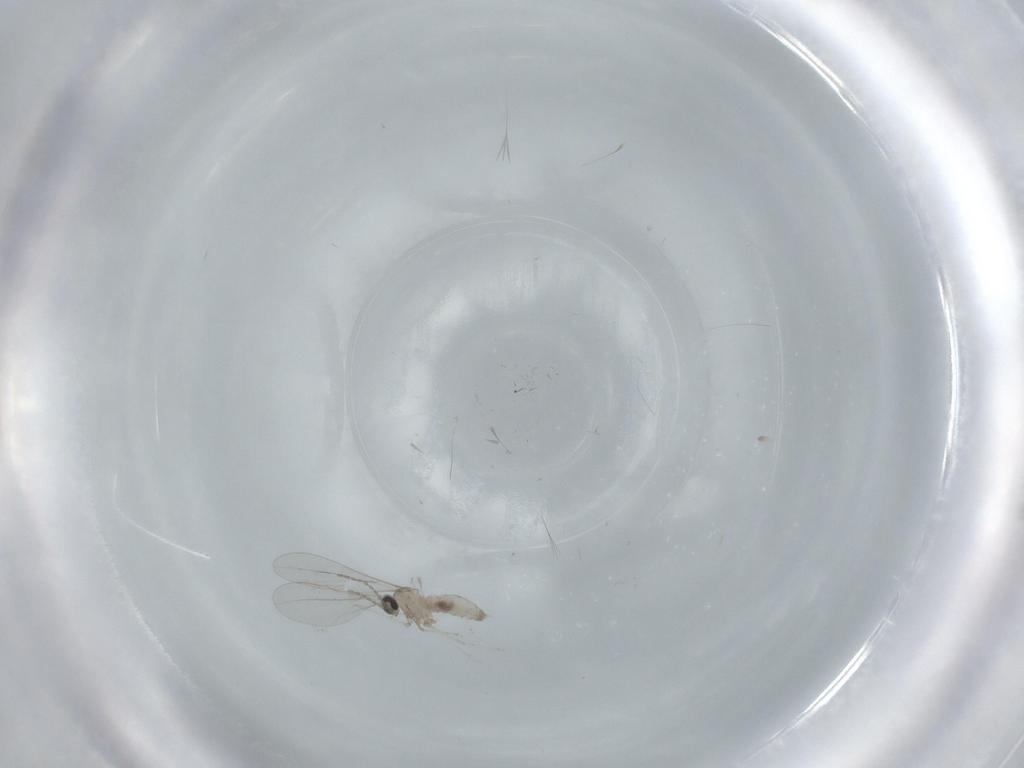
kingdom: Animalia
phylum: Arthropoda
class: Insecta
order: Diptera
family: Cecidomyiidae
